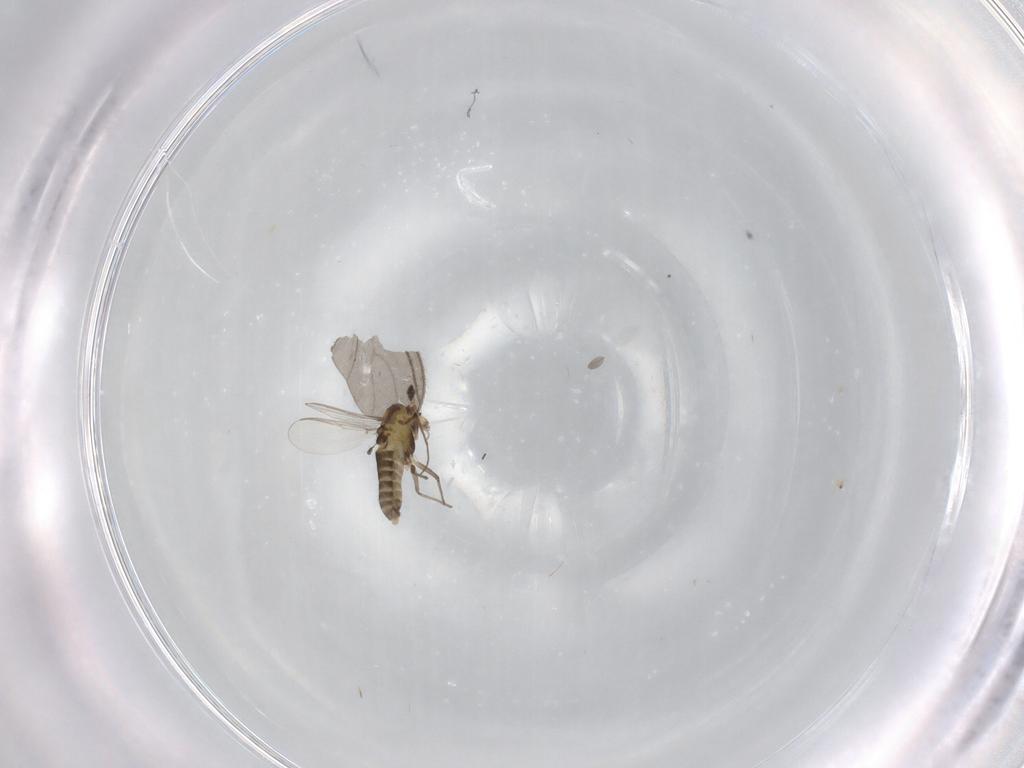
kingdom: Animalia
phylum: Arthropoda
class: Insecta
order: Diptera
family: Chironomidae
